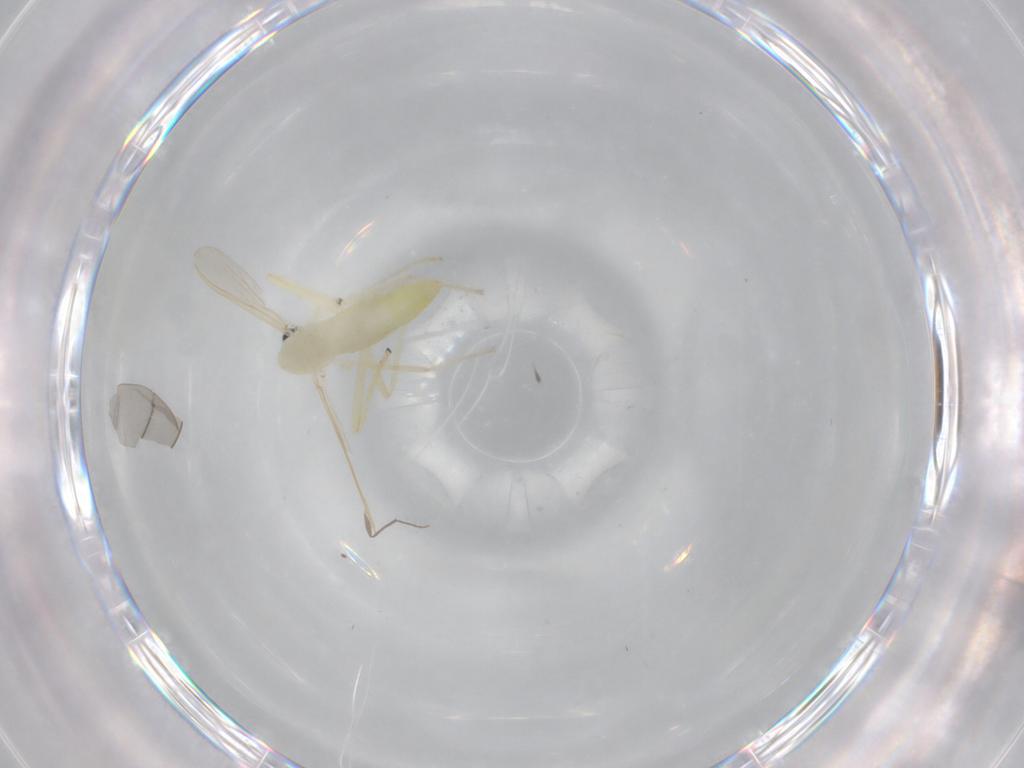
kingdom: Animalia
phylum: Arthropoda
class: Insecta
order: Diptera
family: Chironomidae
